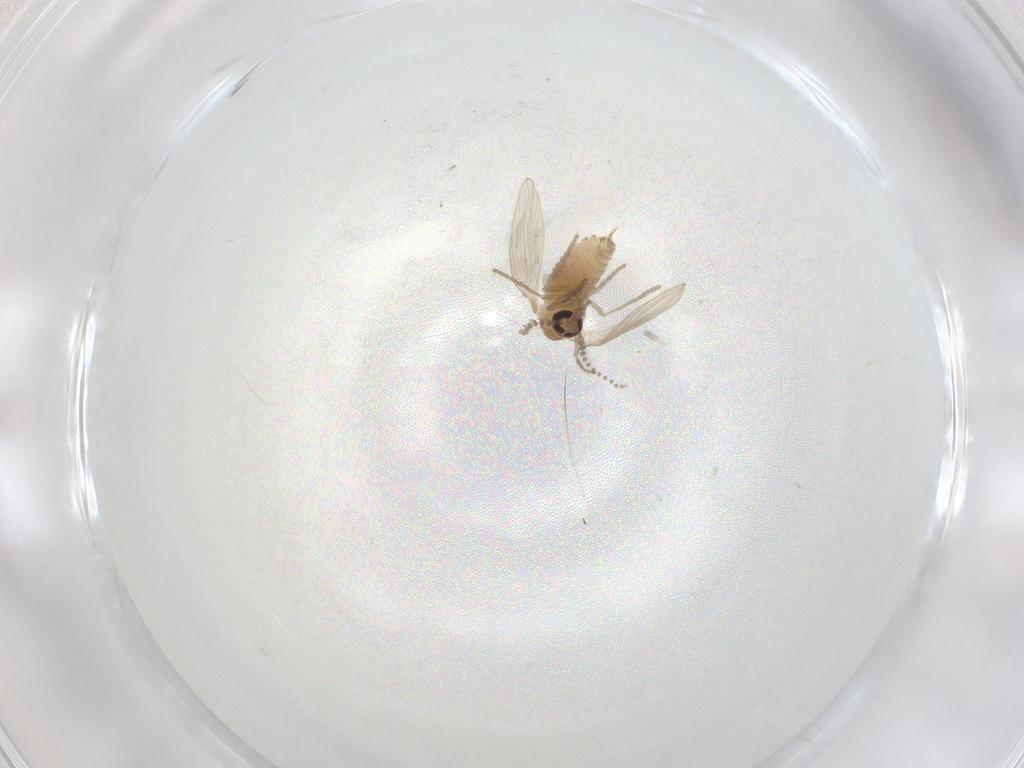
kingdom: Animalia
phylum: Arthropoda
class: Insecta
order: Diptera
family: Psychodidae
